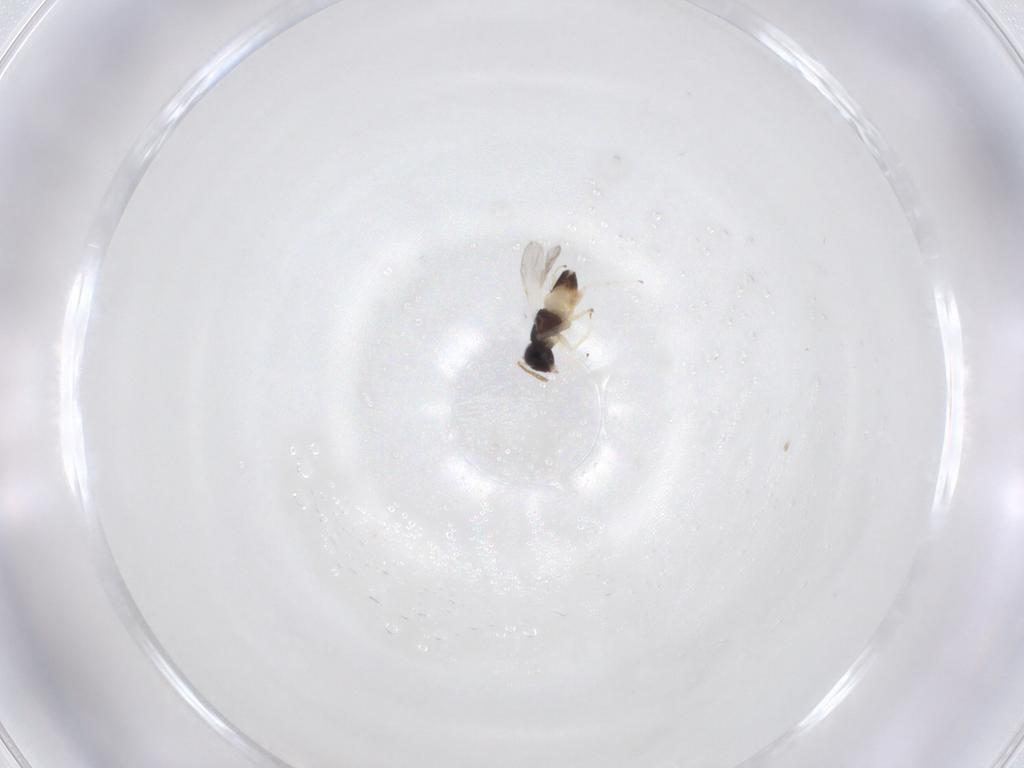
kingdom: Animalia
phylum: Arthropoda
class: Insecta
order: Hymenoptera
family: Encyrtidae
